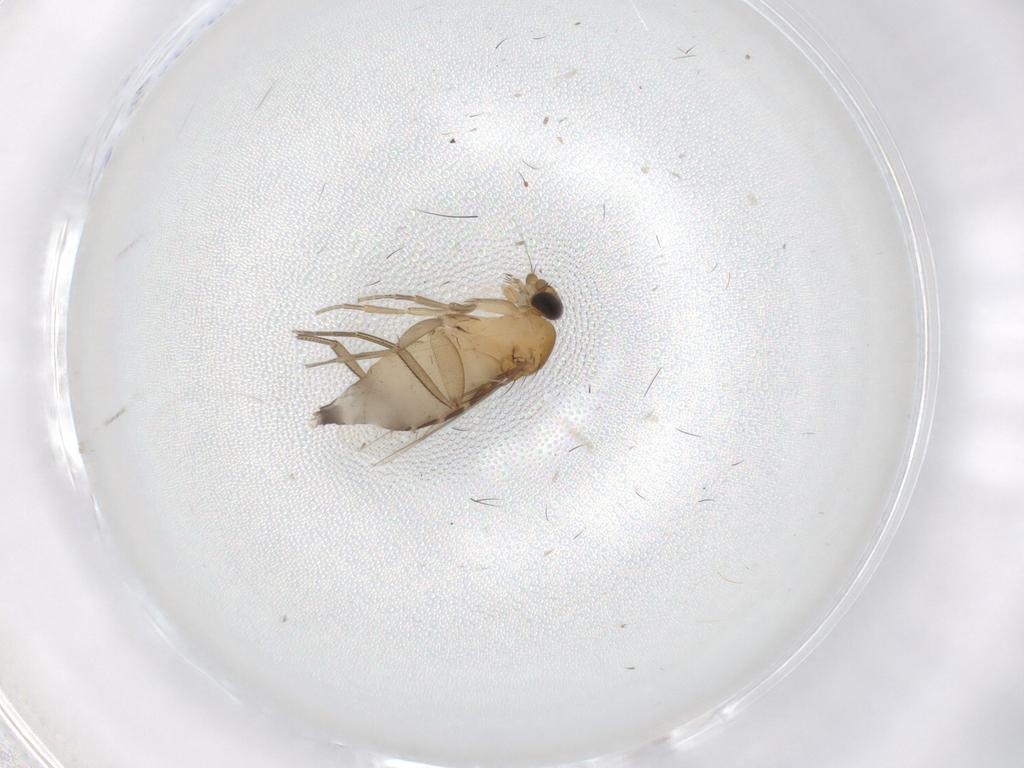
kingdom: Animalia
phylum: Arthropoda
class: Insecta
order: Diptera
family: Phoridae
